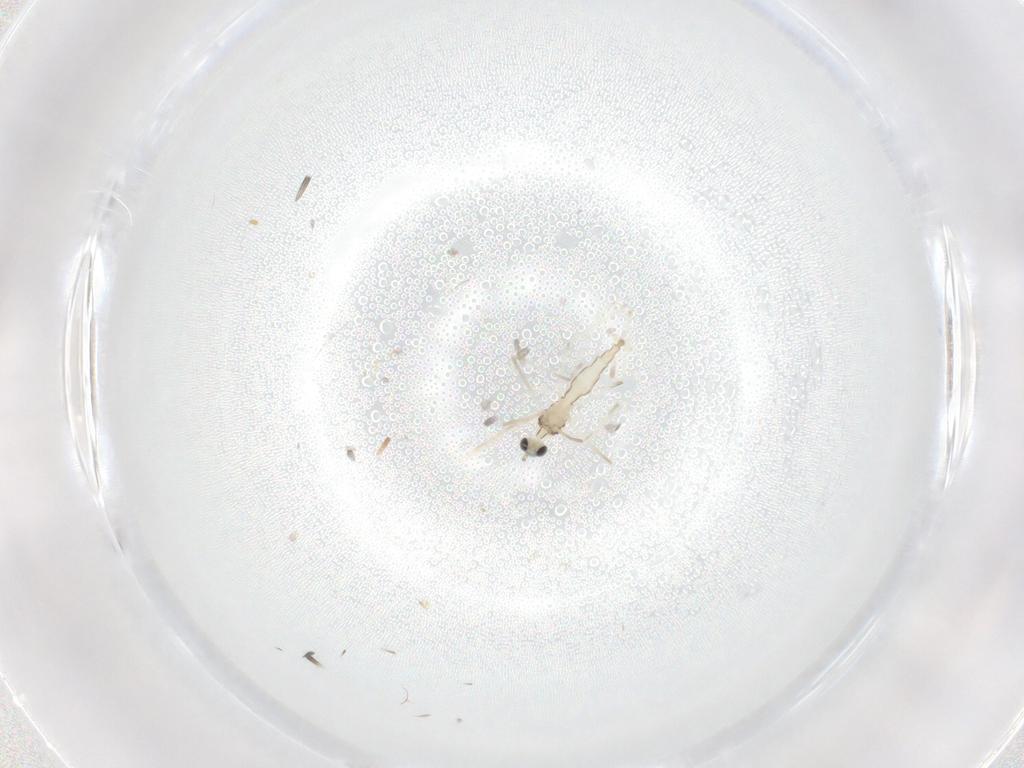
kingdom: Animalia
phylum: Arthropoda
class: Insecta
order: Diptera
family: Cecidomyiidae
